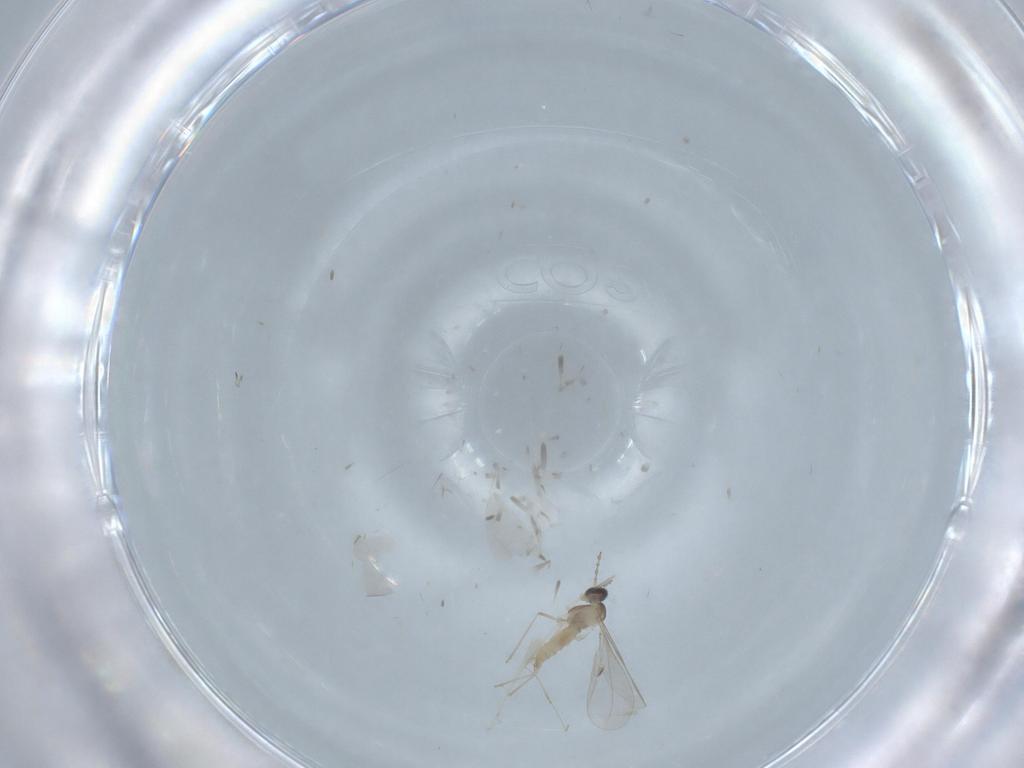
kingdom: Animalia
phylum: Arthropoda
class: Insecta
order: Diptera
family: Cecidomyiidae
